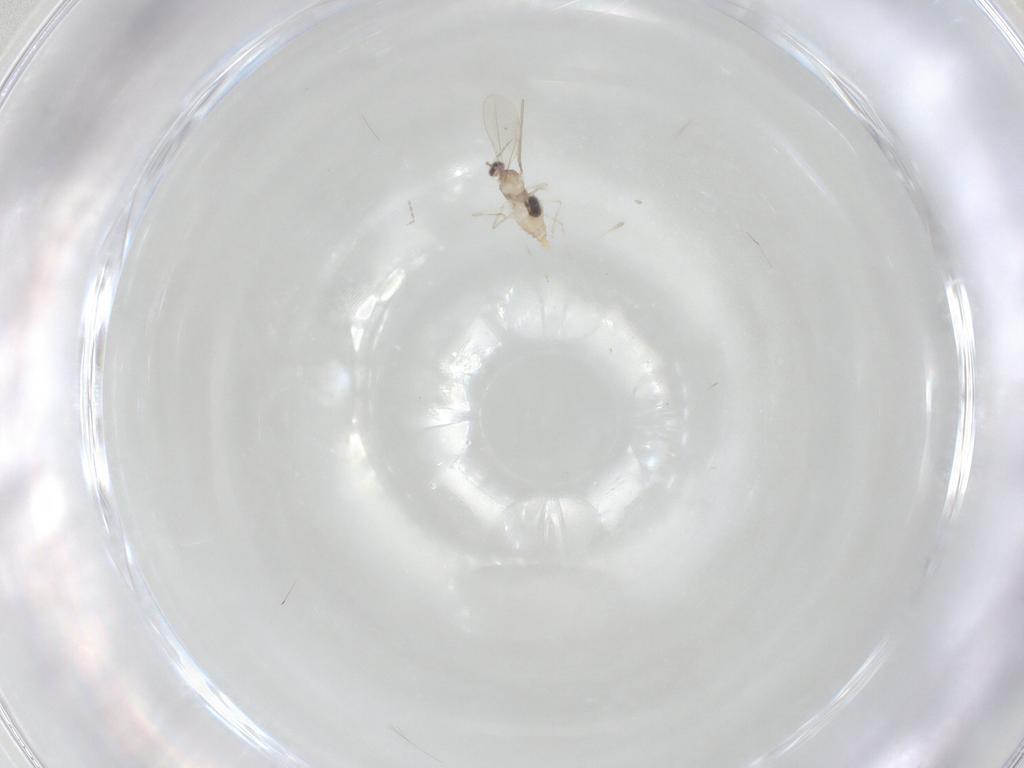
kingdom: Animalia
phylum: Arthropoda
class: Insecta
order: Diptera
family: Cecidomyiidae
